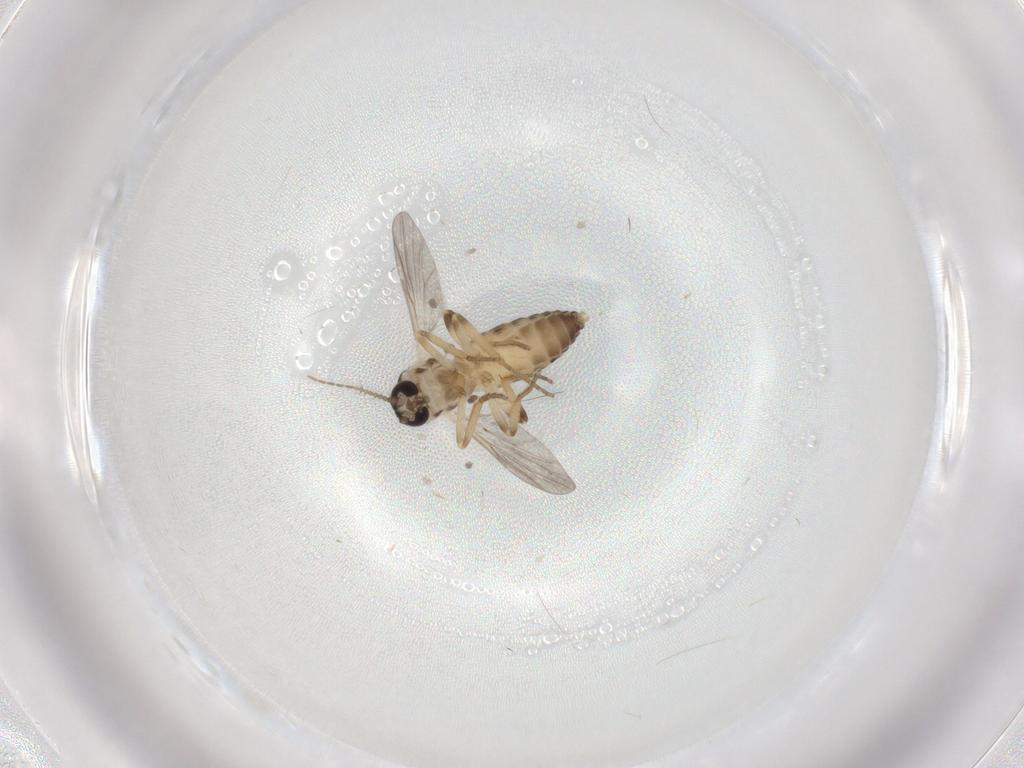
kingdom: Animalia
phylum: Arthropoda
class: Insecta
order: Diptera
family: Ceratopogonidae
